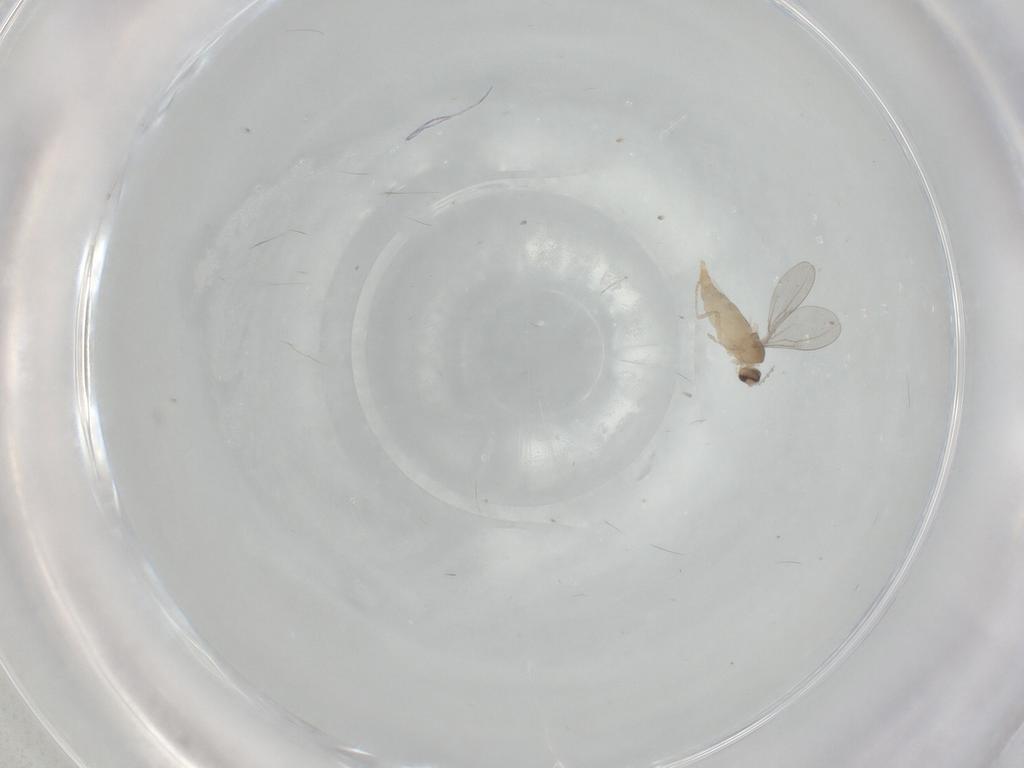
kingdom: Animalia
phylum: Arthropoda
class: Insecta
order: Diptera
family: Cecidomyiidae
